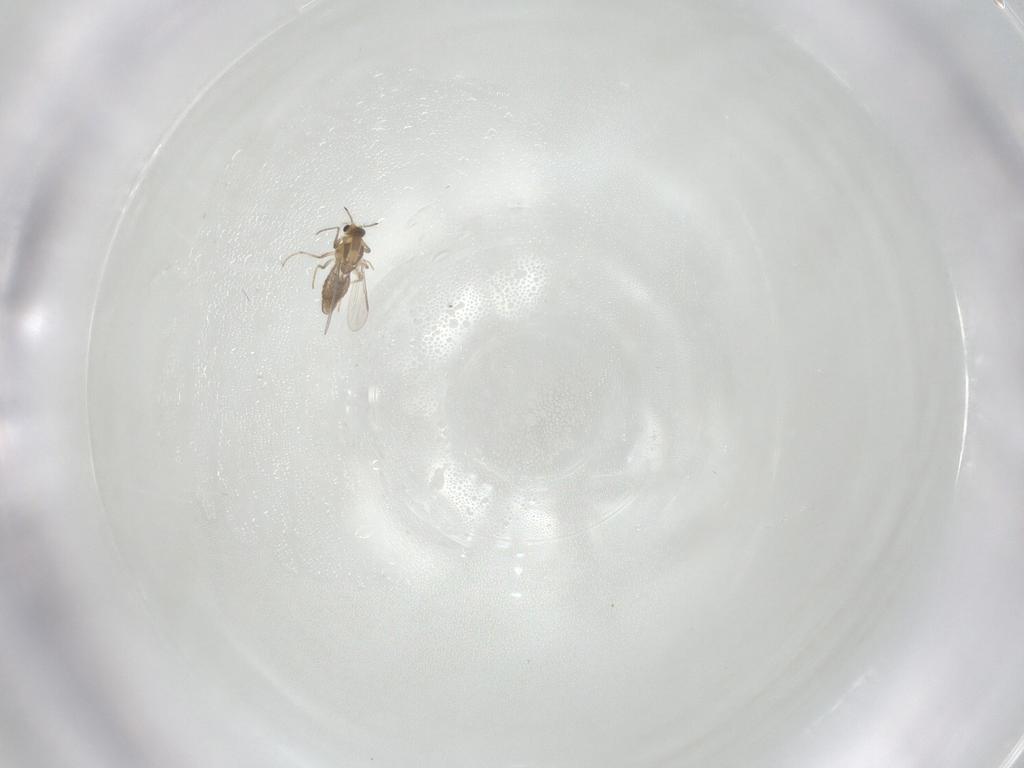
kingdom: Animalia
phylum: Arthropoda
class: Insecta
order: Diptera
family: Chironomidae
